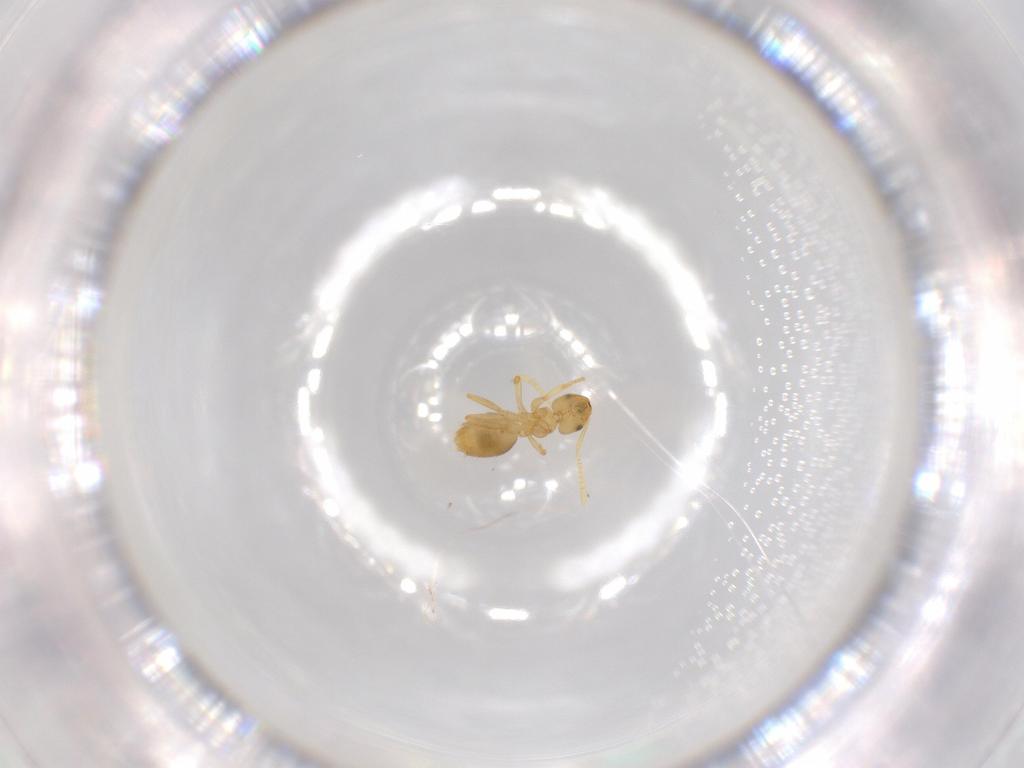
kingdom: Animalia
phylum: Arthropoda
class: Insecta
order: Hymenoptera
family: Formicidae
